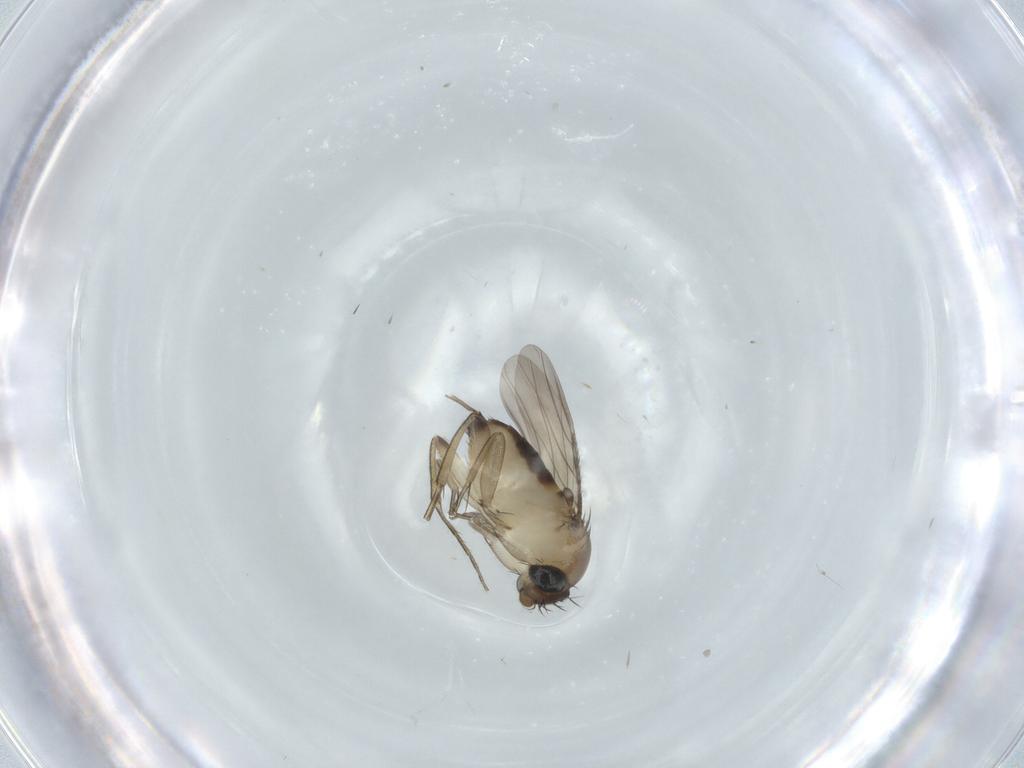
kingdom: Animalia
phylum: Arthropoda
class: Insecta
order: Diptera
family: Phoridae
